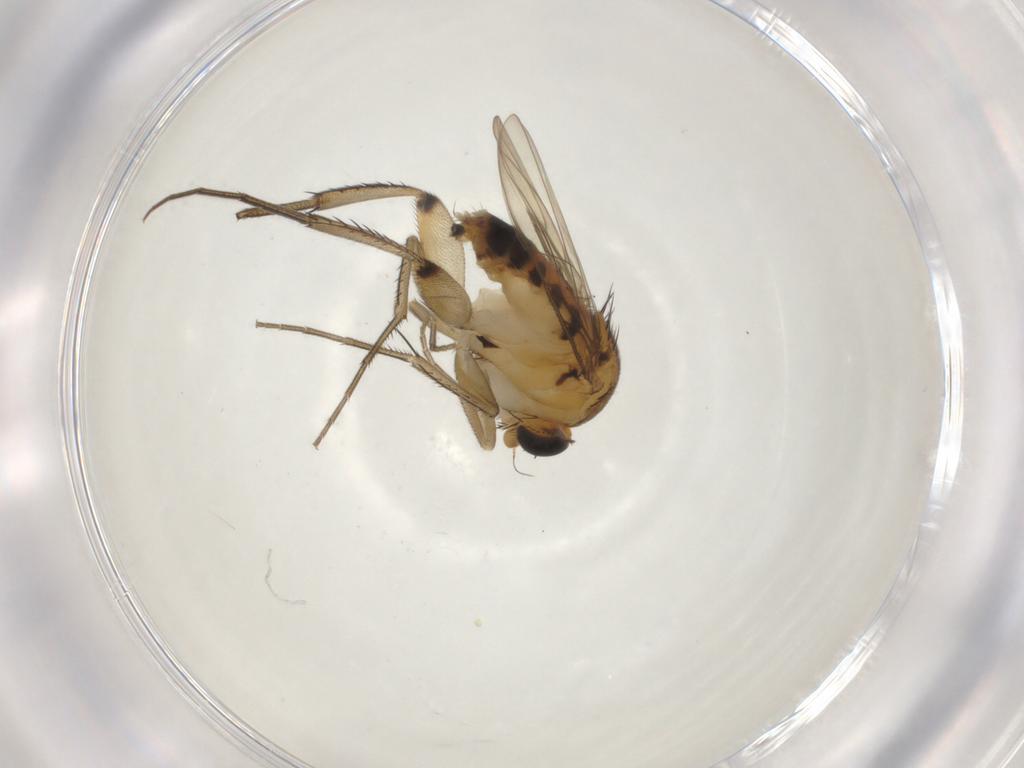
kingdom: Animalia
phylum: Arthropoda
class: Insecta
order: Diptera
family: Phoridae
